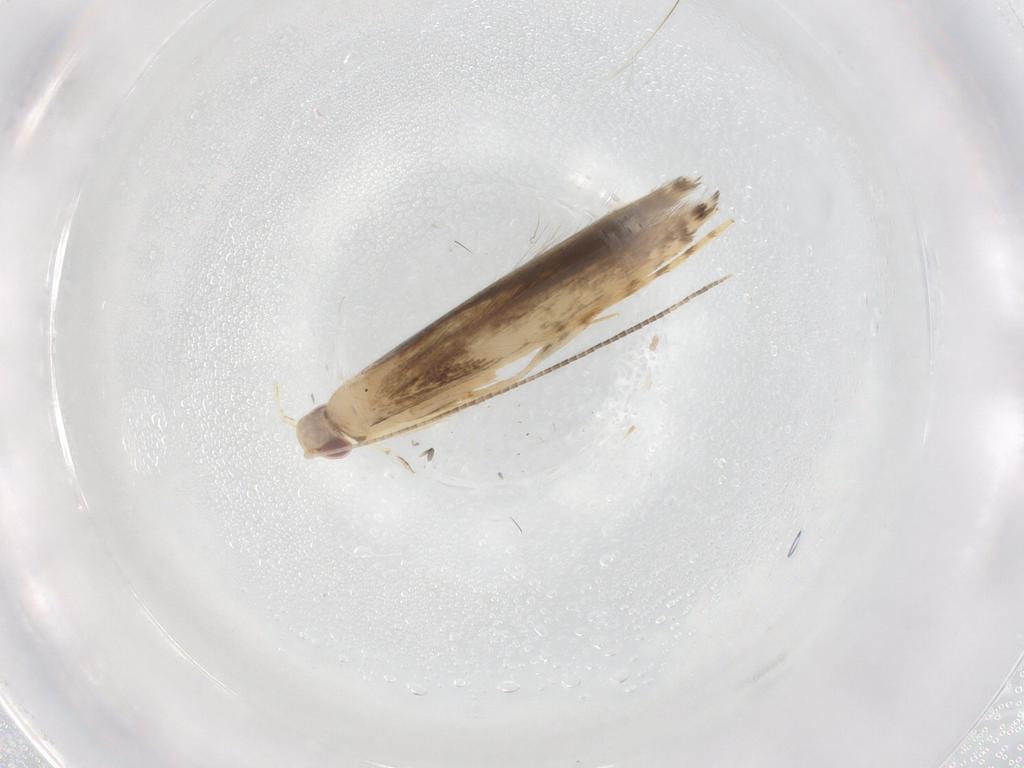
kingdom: Animalia
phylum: Arthropoda
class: Insecta
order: Lepidoptera
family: Gracillariidae
